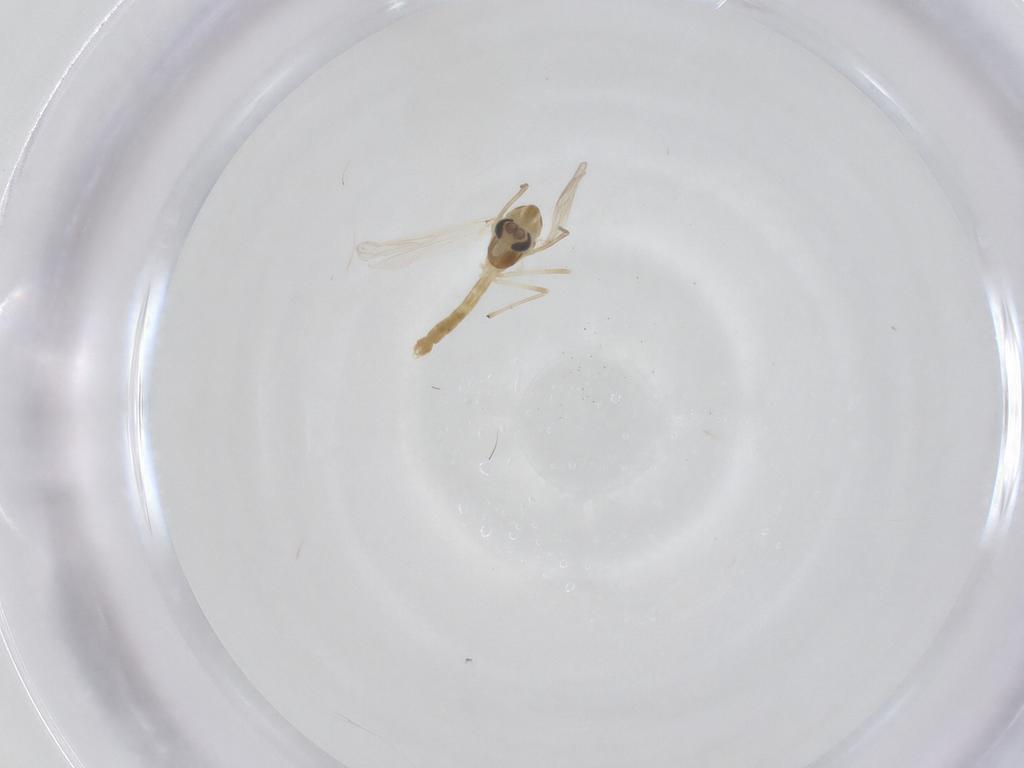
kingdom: Animalia
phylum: Arthropoda
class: Insecta
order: Diptera
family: Chironomidae
